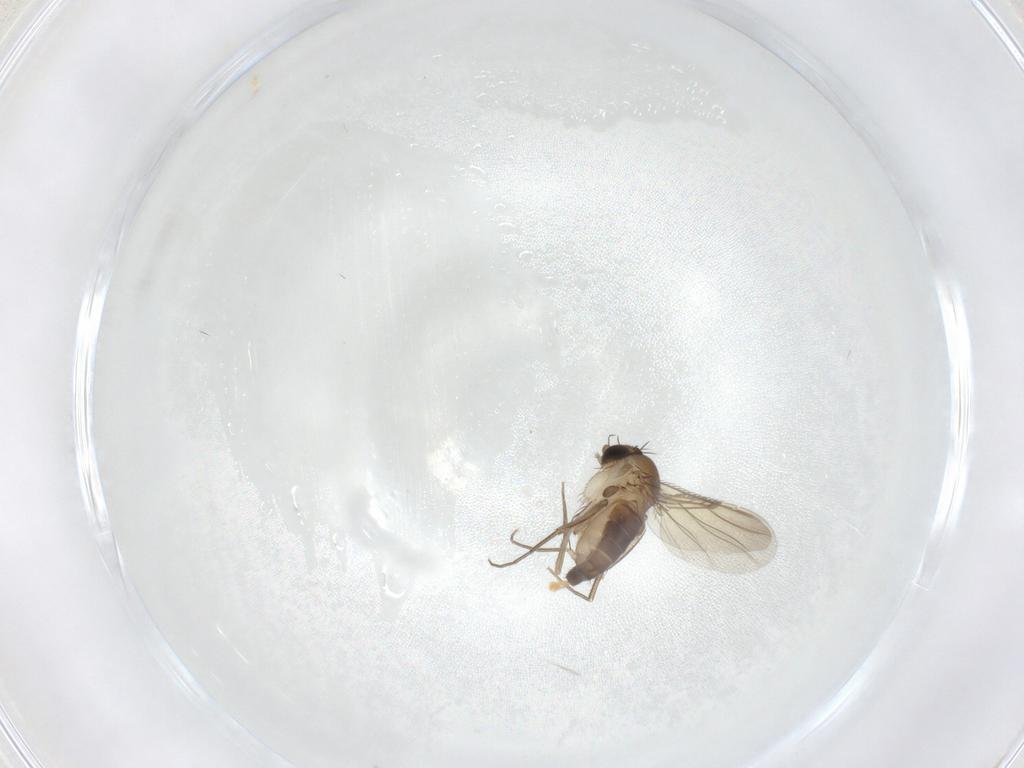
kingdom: Animalia
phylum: Arthropoda
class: Insecta
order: Diptera
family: Phoridae
